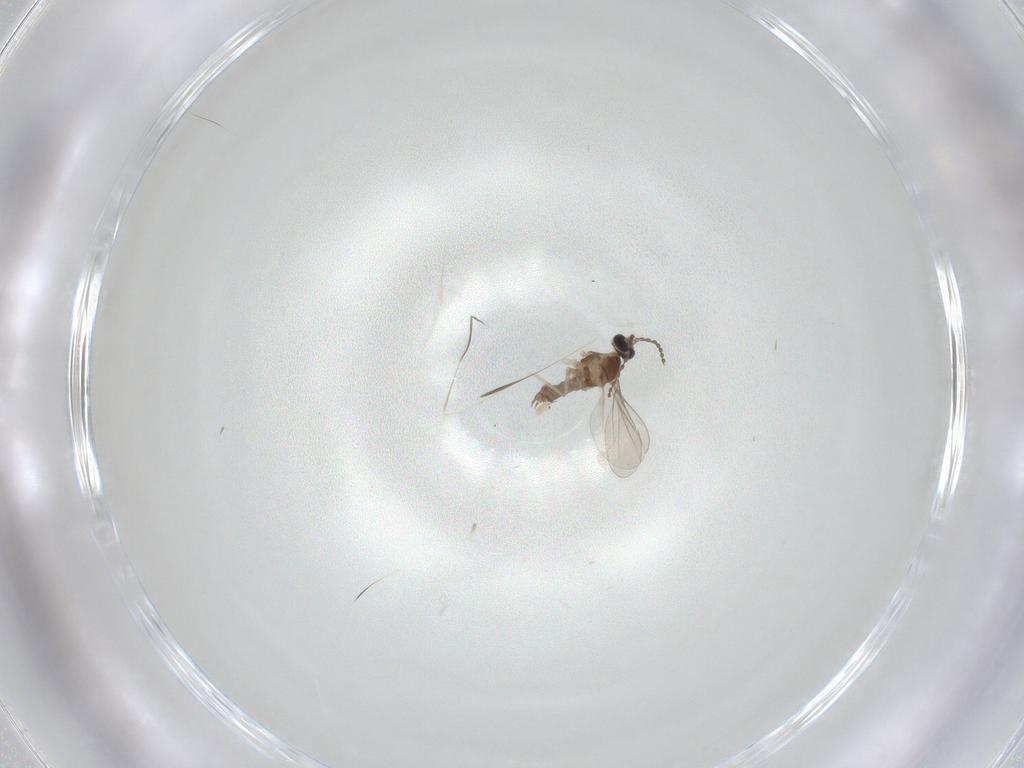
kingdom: Animalia
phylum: Arthropoda
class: Insecta
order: Diptera
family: Cecidomyiidae
